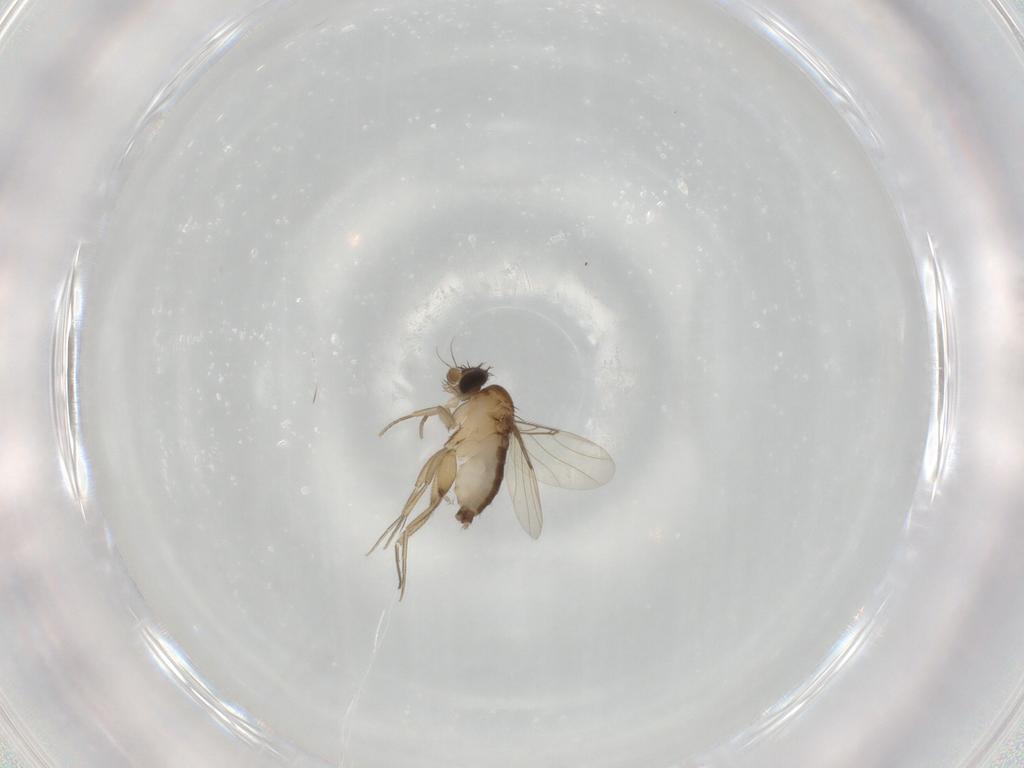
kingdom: Animalia
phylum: Arthropoda
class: Insecta
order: Diptera
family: Phoridae
